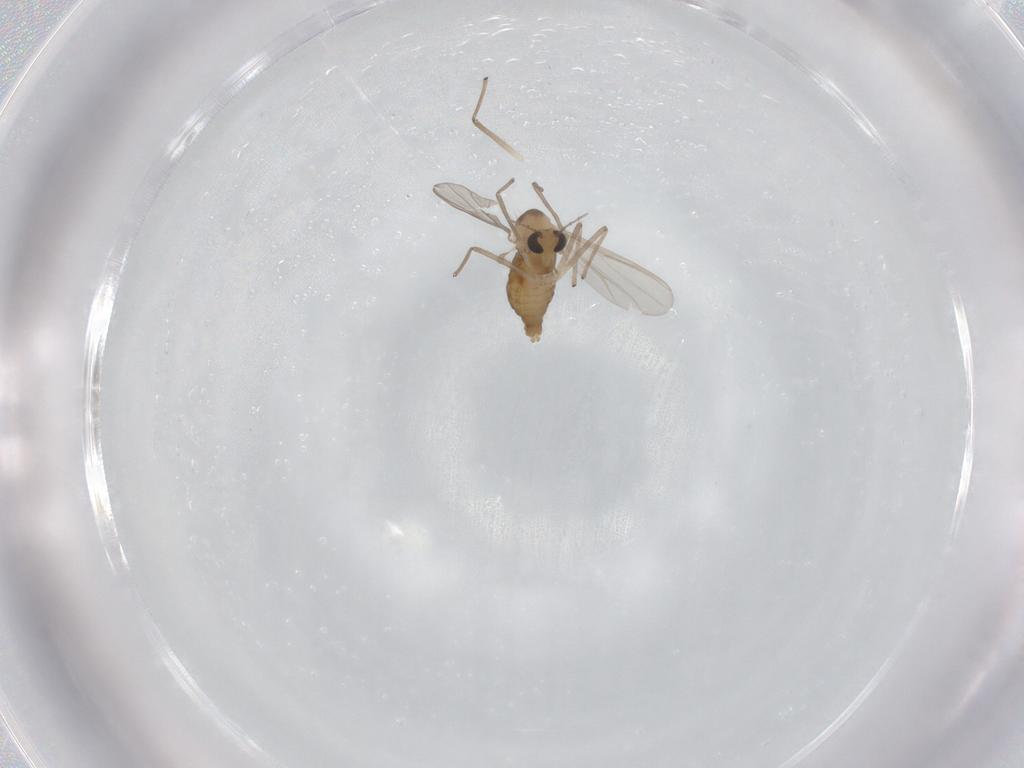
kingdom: Animalia
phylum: Arthropoda
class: Insecta
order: Diptera
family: Chironomidae
